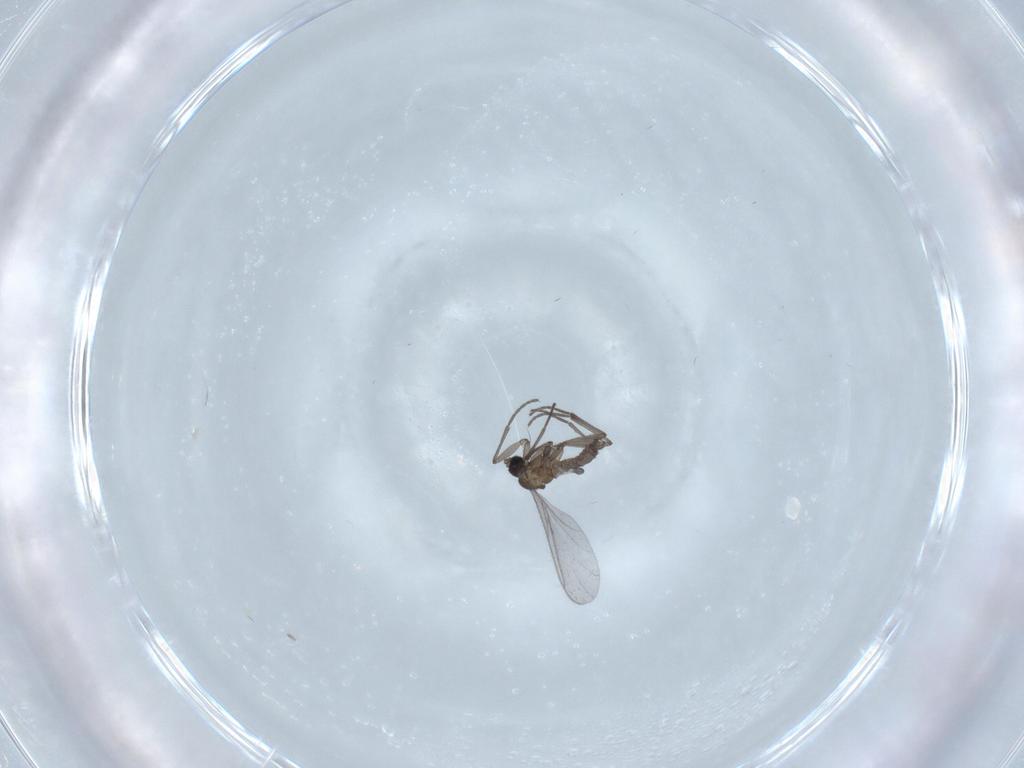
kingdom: Animalia
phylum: Arthropoda
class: Insecta
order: Diptera
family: Sciaridae
